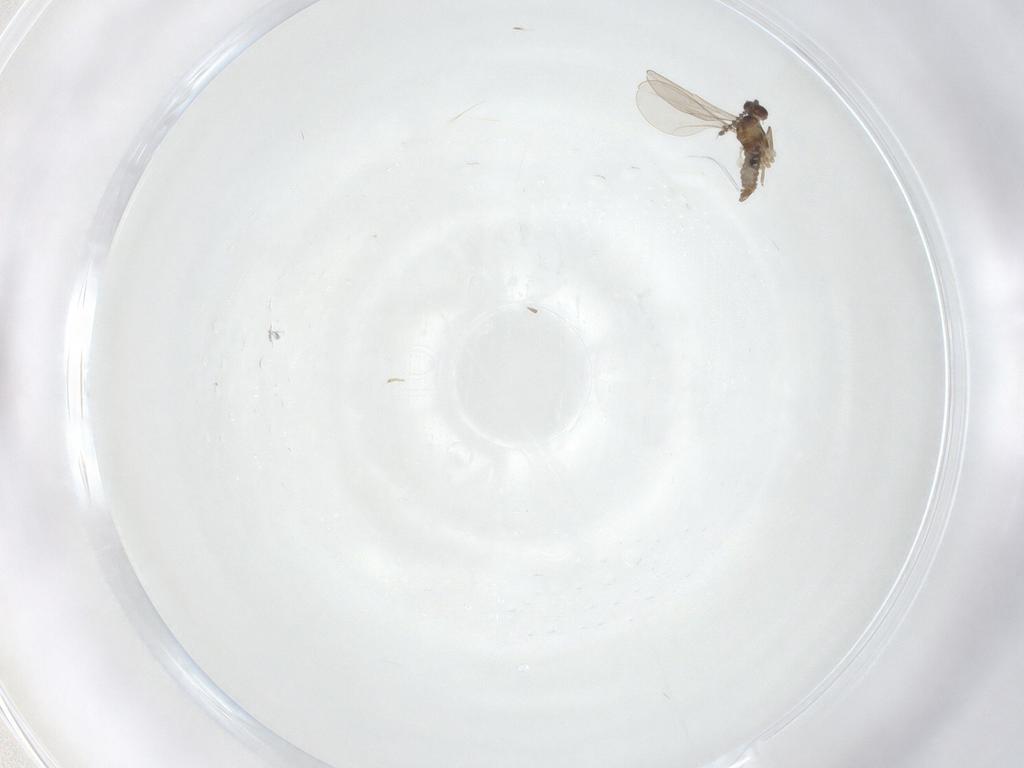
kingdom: Animalia
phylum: Arthropoda
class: Insecta
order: Diptera
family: Cecidomyiidae
